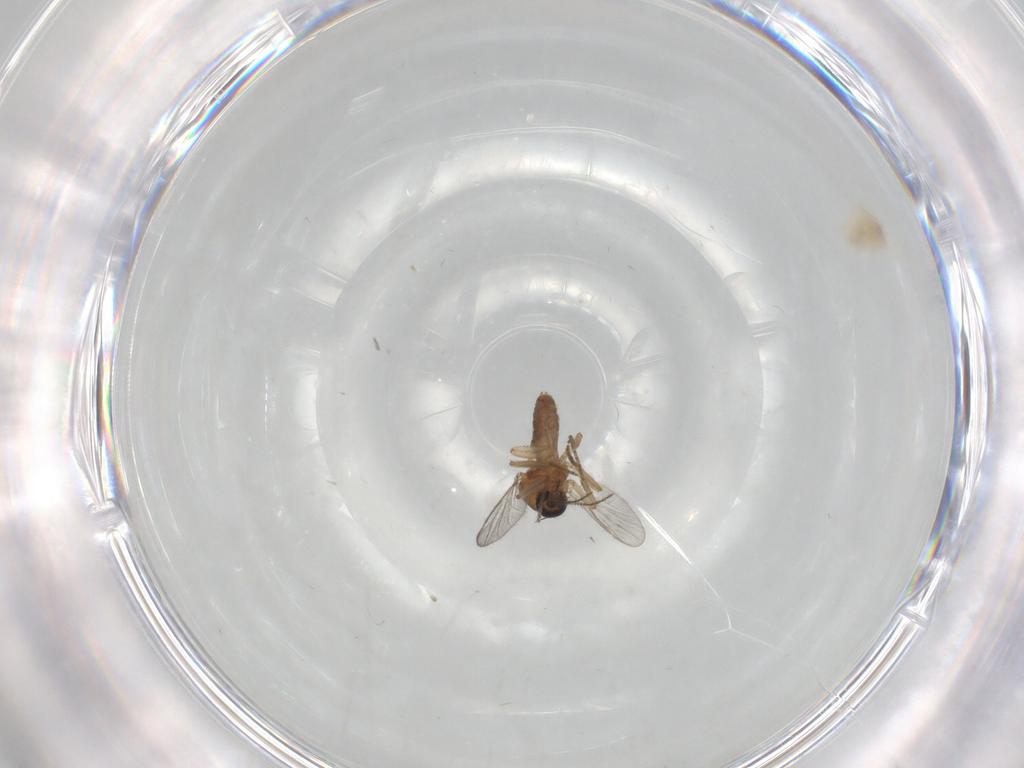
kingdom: Animalia
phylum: Arthropoda
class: Insecta
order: Diptera
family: Ceratopogonidae
